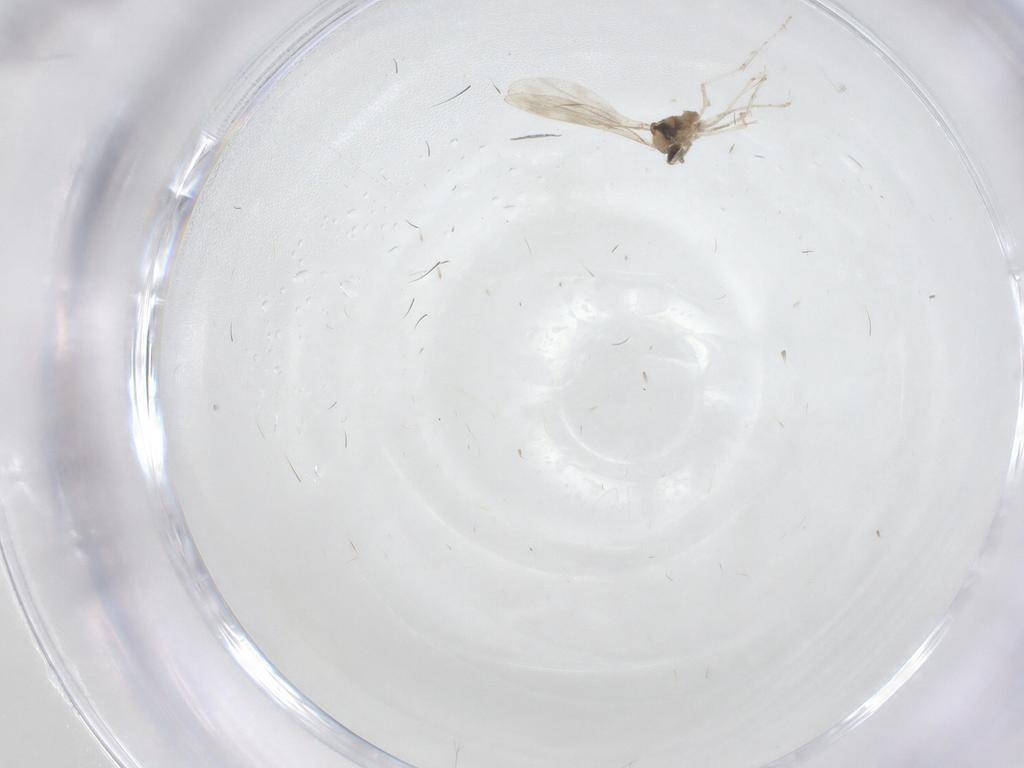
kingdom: Animalia
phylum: Arthropoda
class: Insecta
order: Diptera
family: Cecidomyiidae
